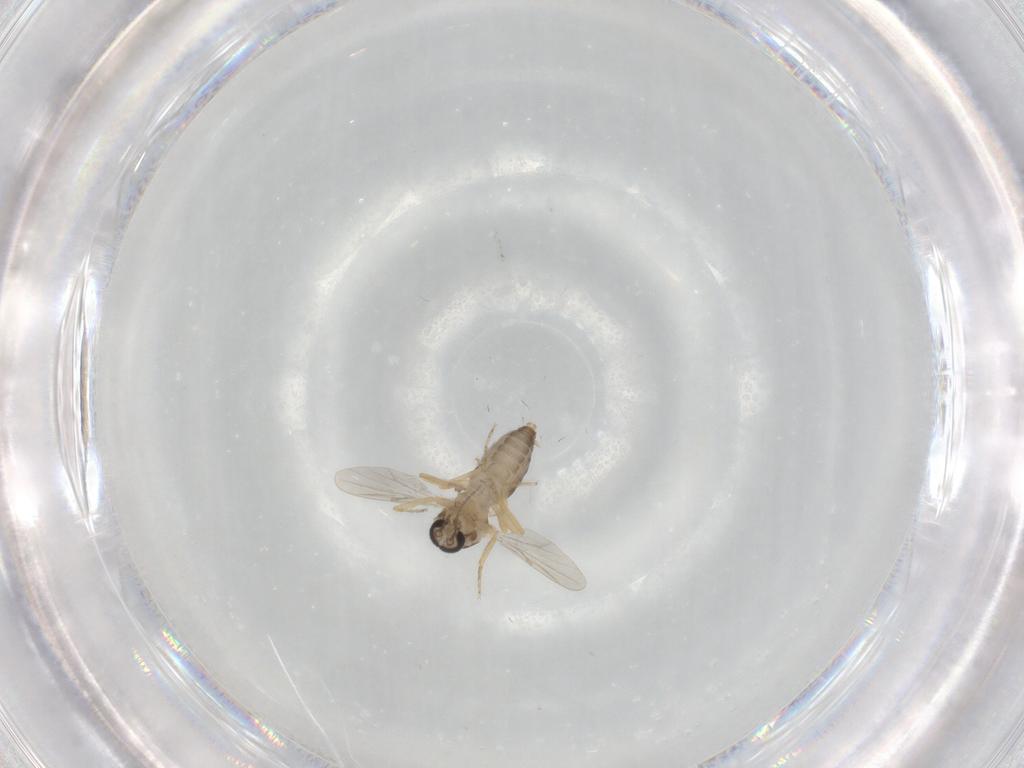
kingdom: Animalia
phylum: Arthropoda
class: Insecta
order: Diptera
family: Ceratopogonidae
